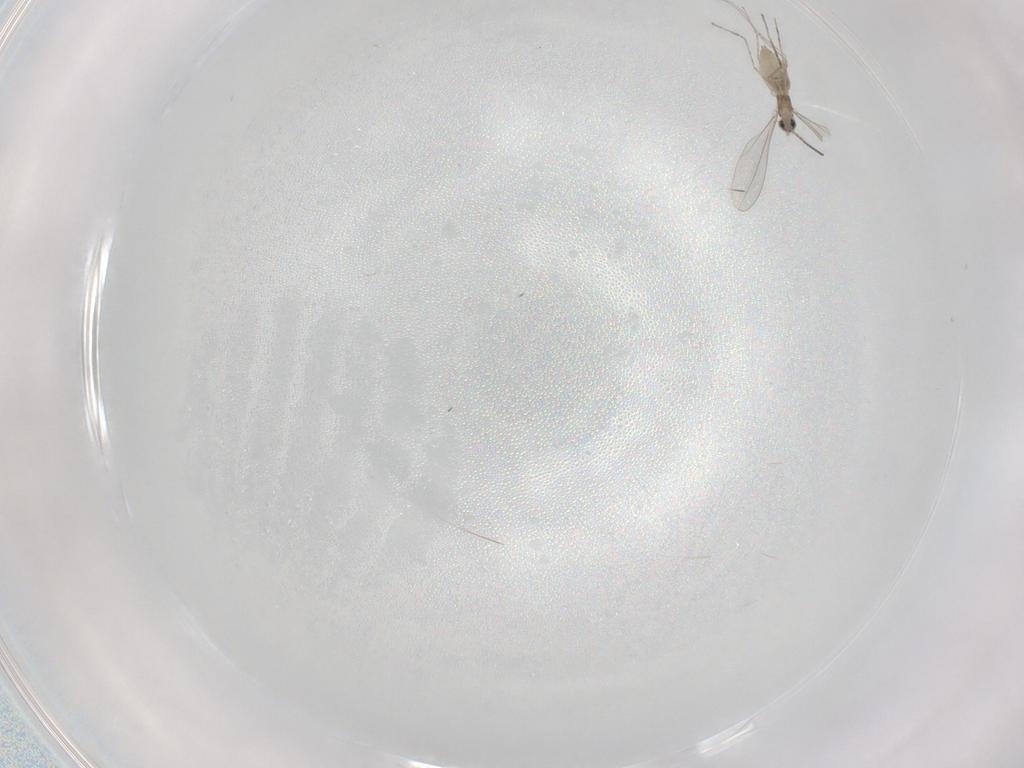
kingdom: Animalia
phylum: Arthropoda
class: Insecta
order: Diptera
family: Cecidomyiidae
